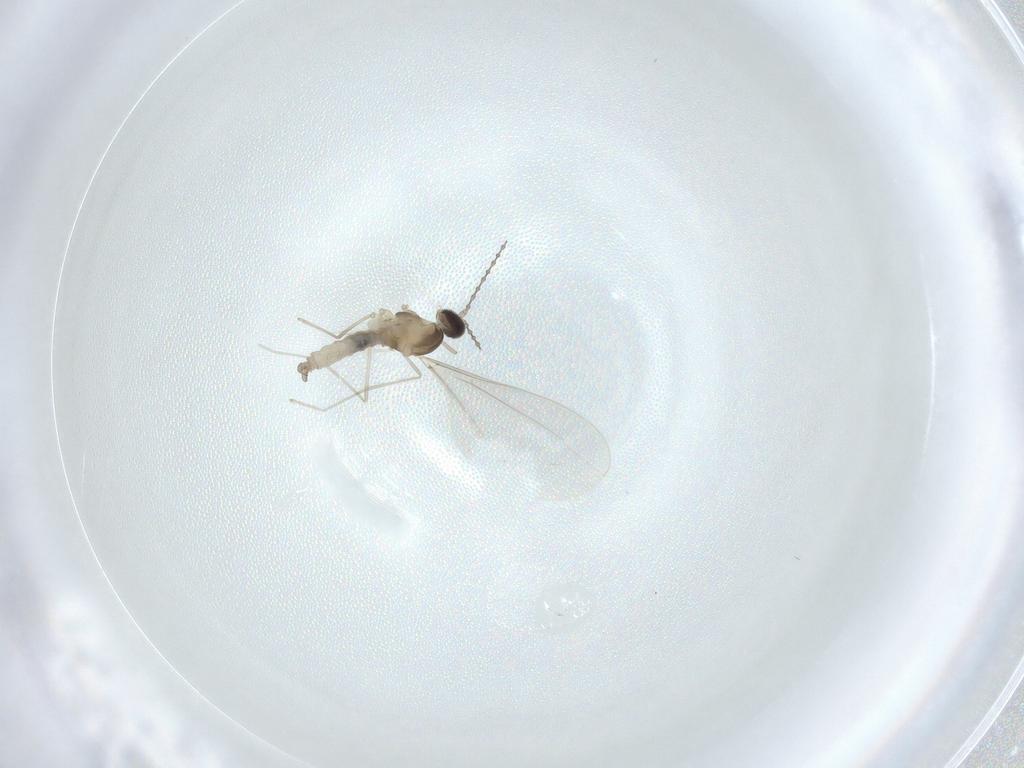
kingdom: Animalia
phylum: Arthropoda
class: Insecta
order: Diptera
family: Cecidomyiidae
